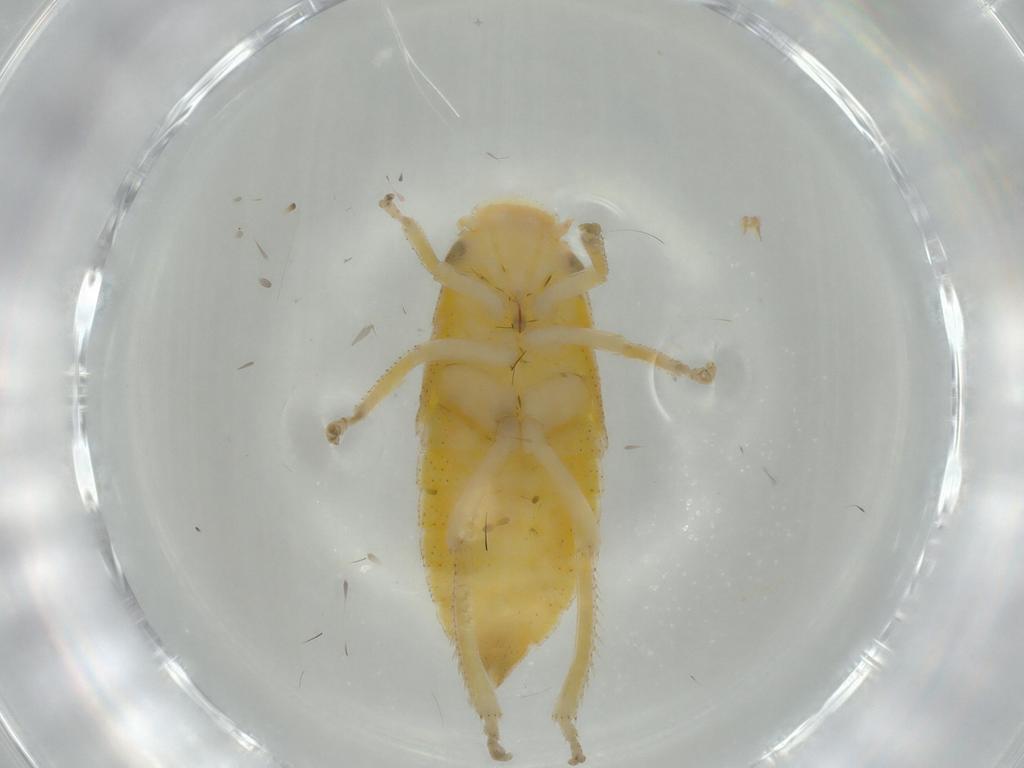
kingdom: Animalia
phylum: Arthropoda
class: Insecta
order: Hemiptera
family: Cicadellidae
